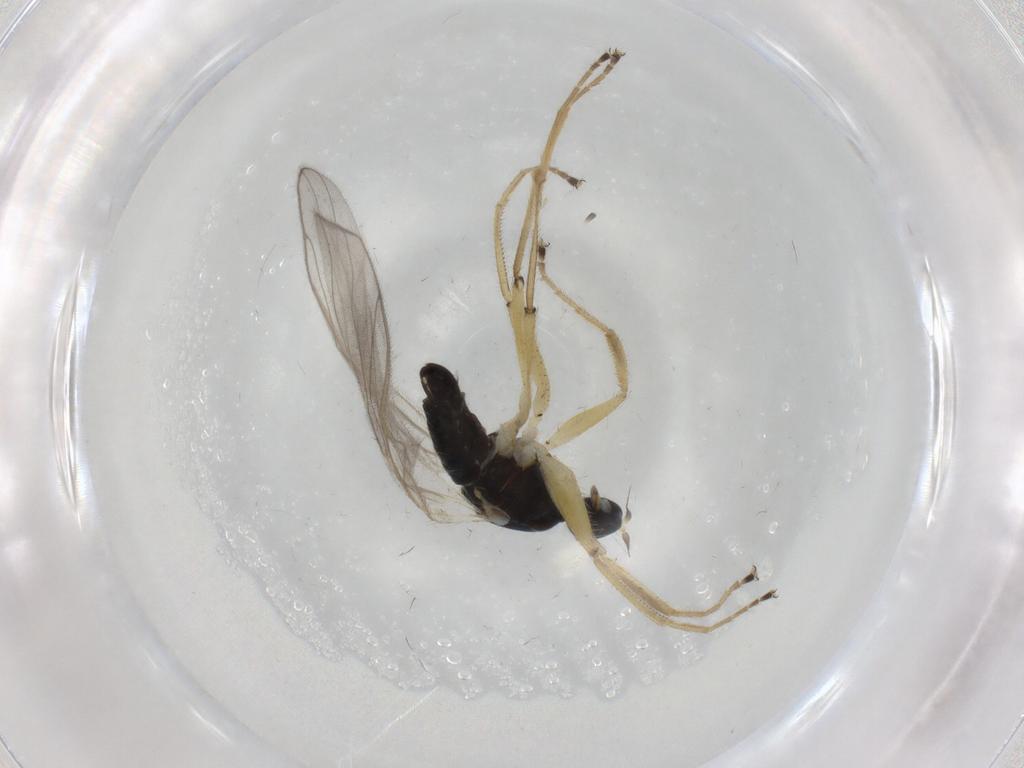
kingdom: Animalia
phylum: Arthropoda
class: Insecta
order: Diptera
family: Hybotidae
